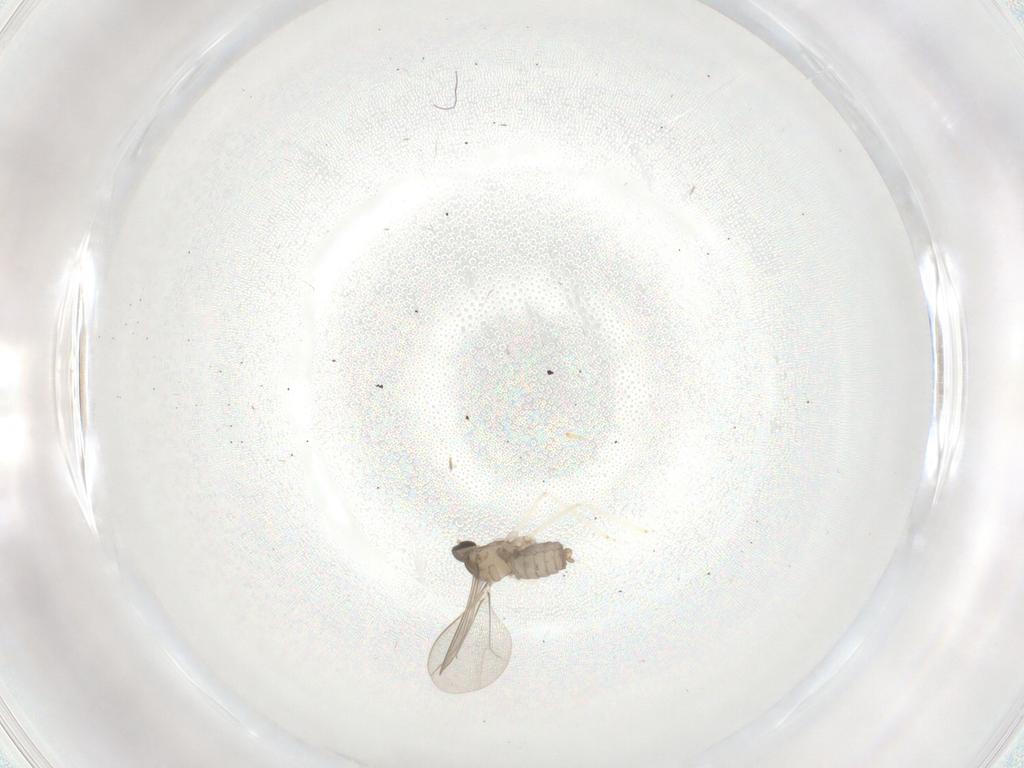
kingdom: Animalia
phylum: Arthropoda
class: Insecta
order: Diptera
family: Cecidomyiidae
